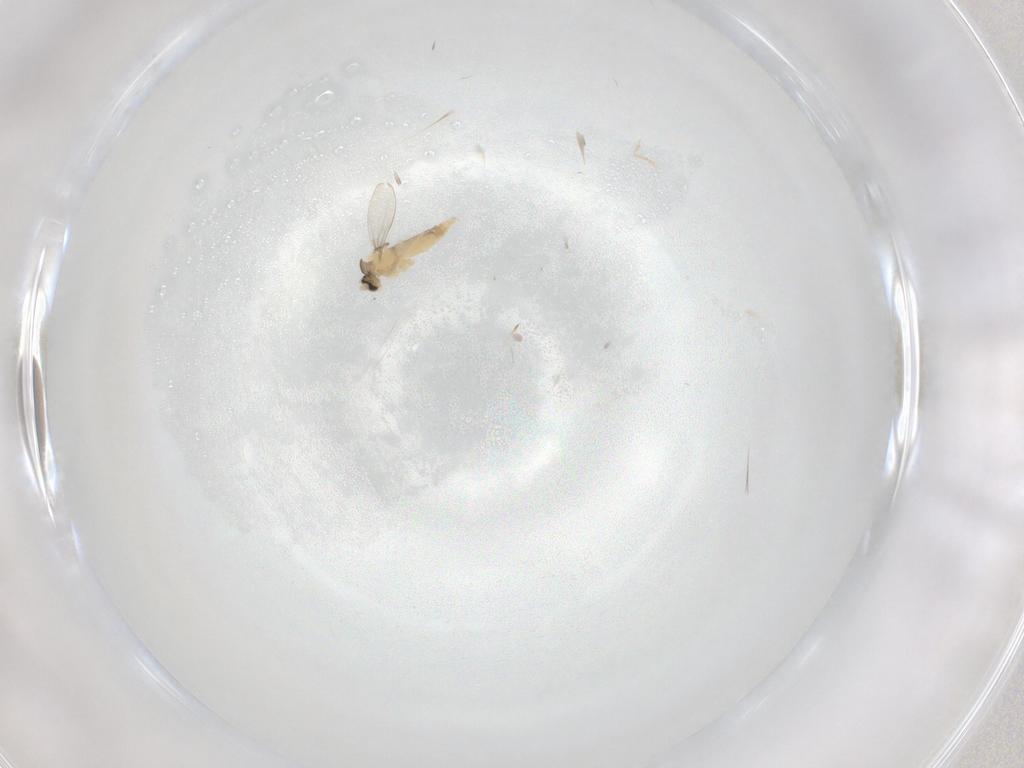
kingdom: Animalia
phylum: Arthropoda
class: Insecta
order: Diptera
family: Cecidomyiidae
